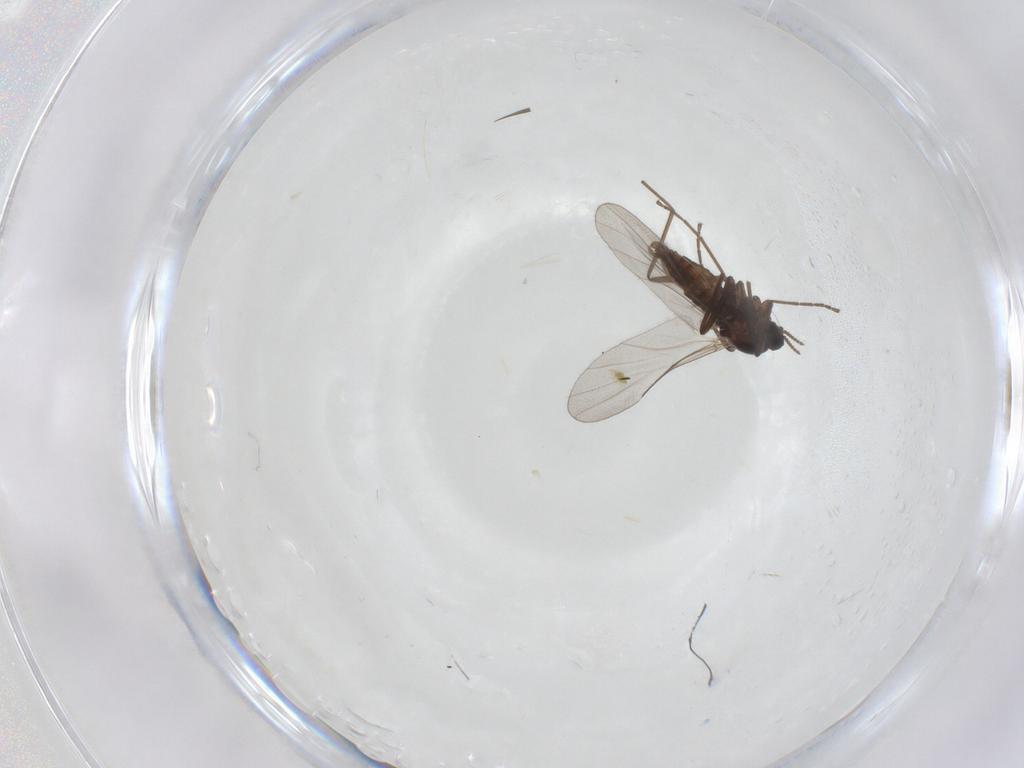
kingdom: Animalia
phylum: Arthropoda
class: Insecta
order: Diptera
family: Cecidomyiidae
